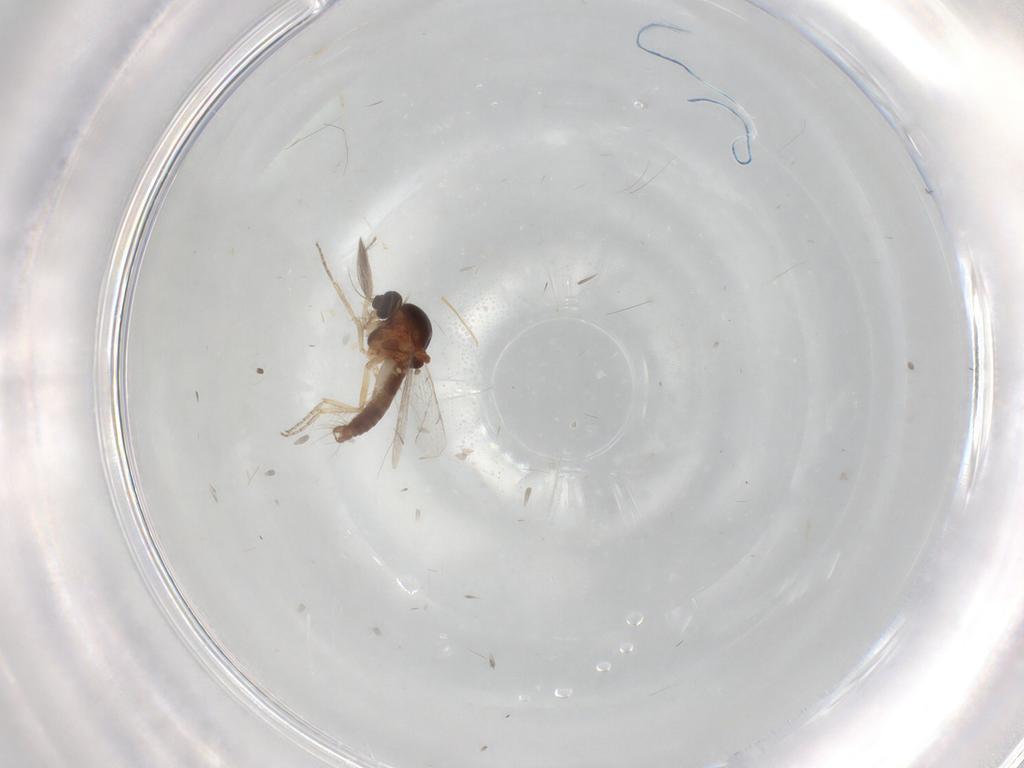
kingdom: Animalia
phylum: Arthropoda
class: Insecta
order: Diptera
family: Ceratopogonidae
